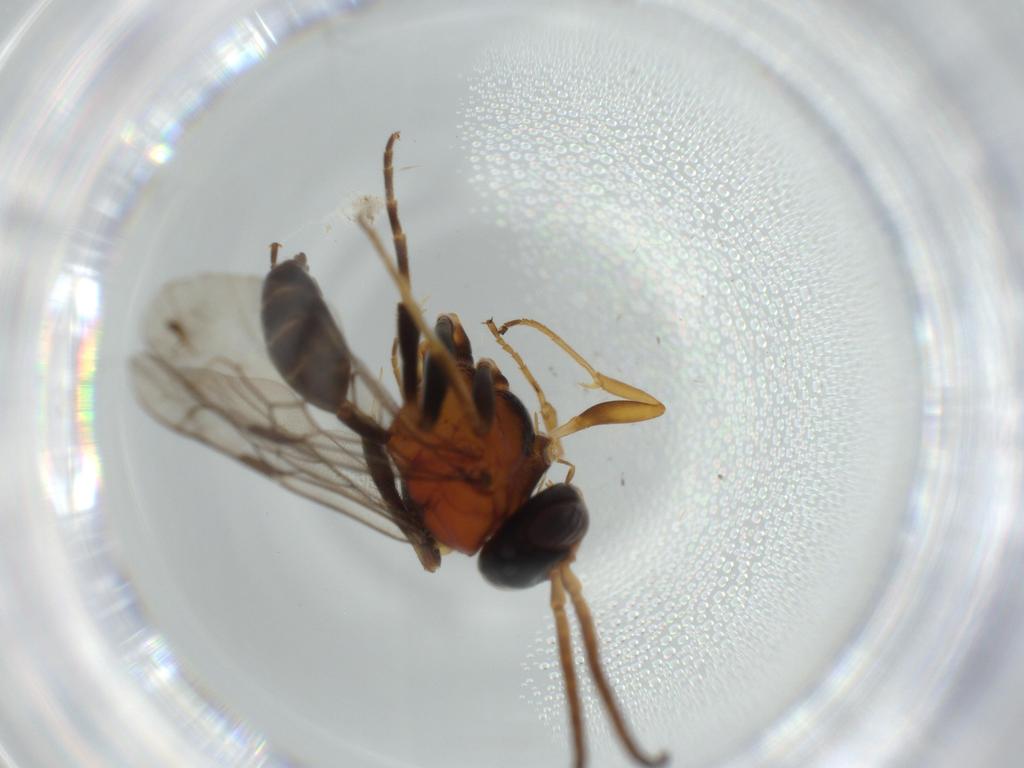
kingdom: Animalia
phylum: Arthropoda
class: Insecta
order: Hymenoptera
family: Evaniidae
